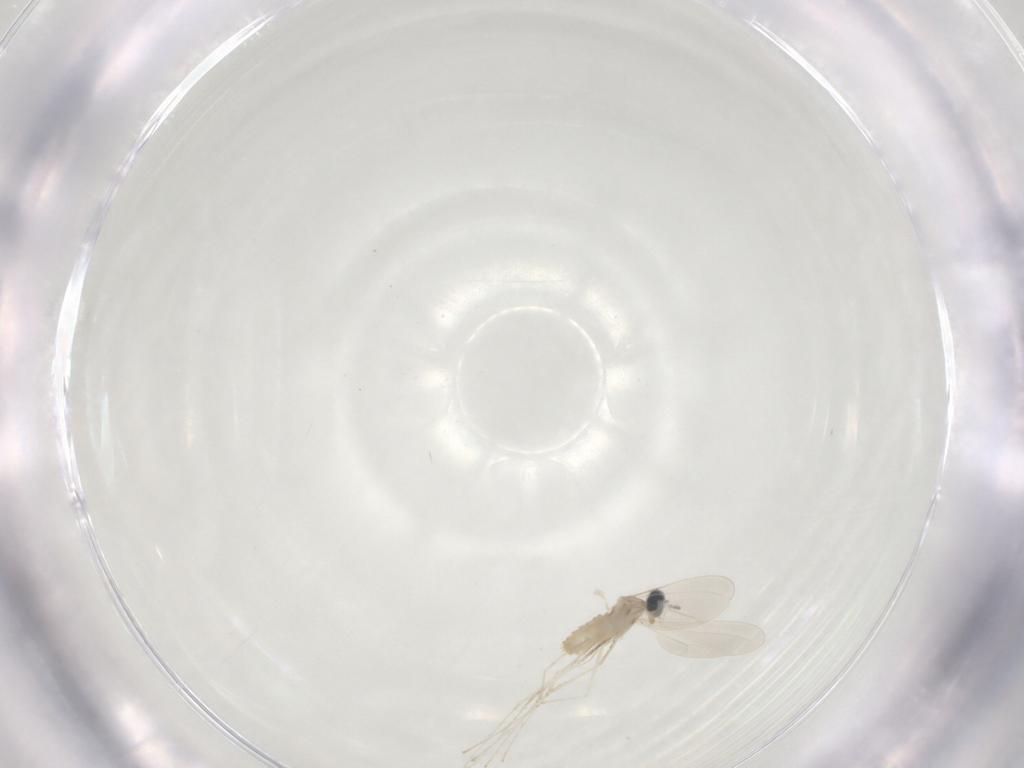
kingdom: Animalia
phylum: Arthropoda
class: Insecta
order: Diptera
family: Cecidomyiidae
